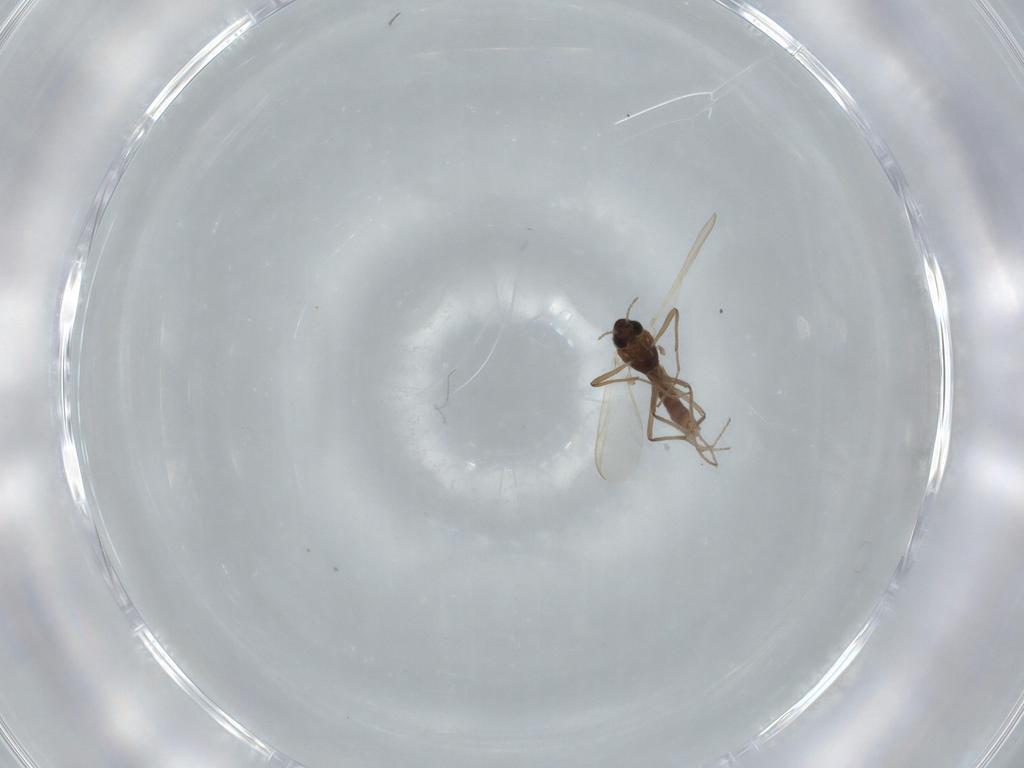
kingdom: Animalia
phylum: Arthropoda
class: Insecta
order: Diptera
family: Chironomidae
